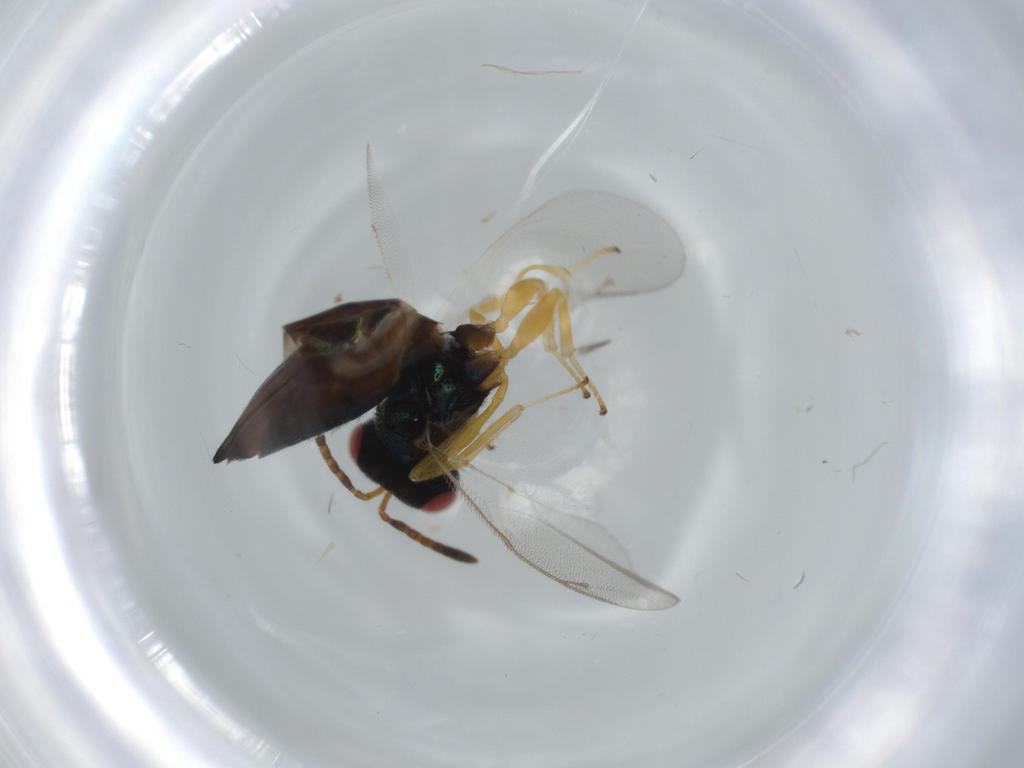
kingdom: Animalia
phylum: Arthropoda
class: Insecta
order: Hymenoptera
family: Pteromalidae
